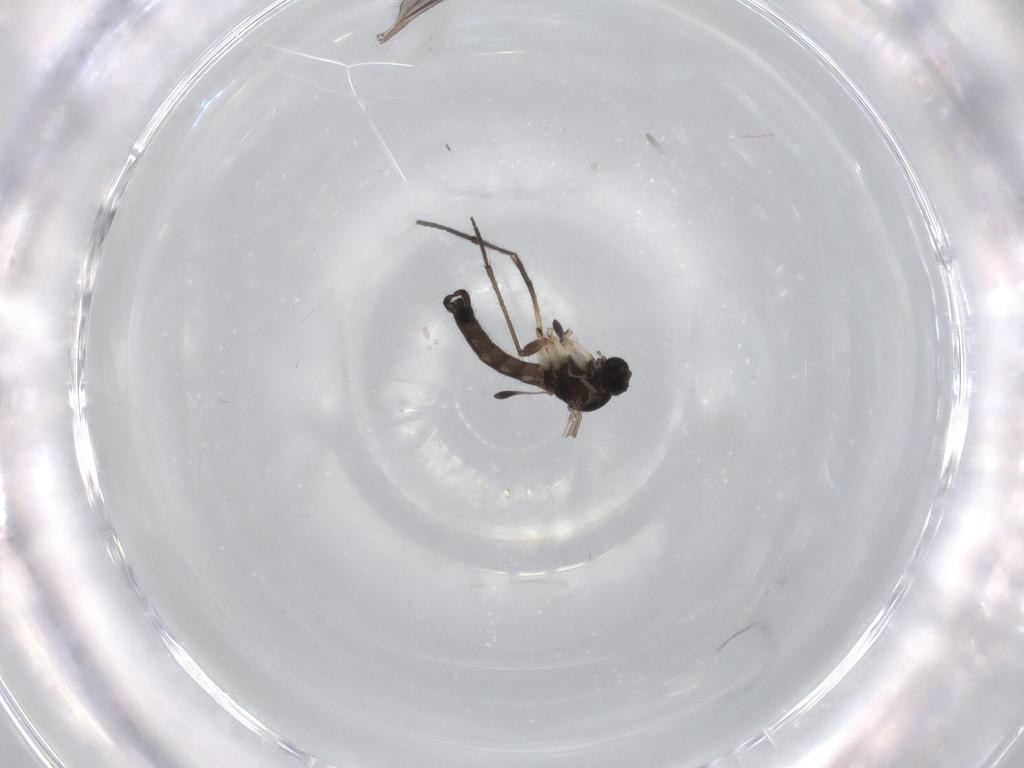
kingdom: Animalia
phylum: Arthropoda
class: Insecta
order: Diptera
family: Sciaridae
